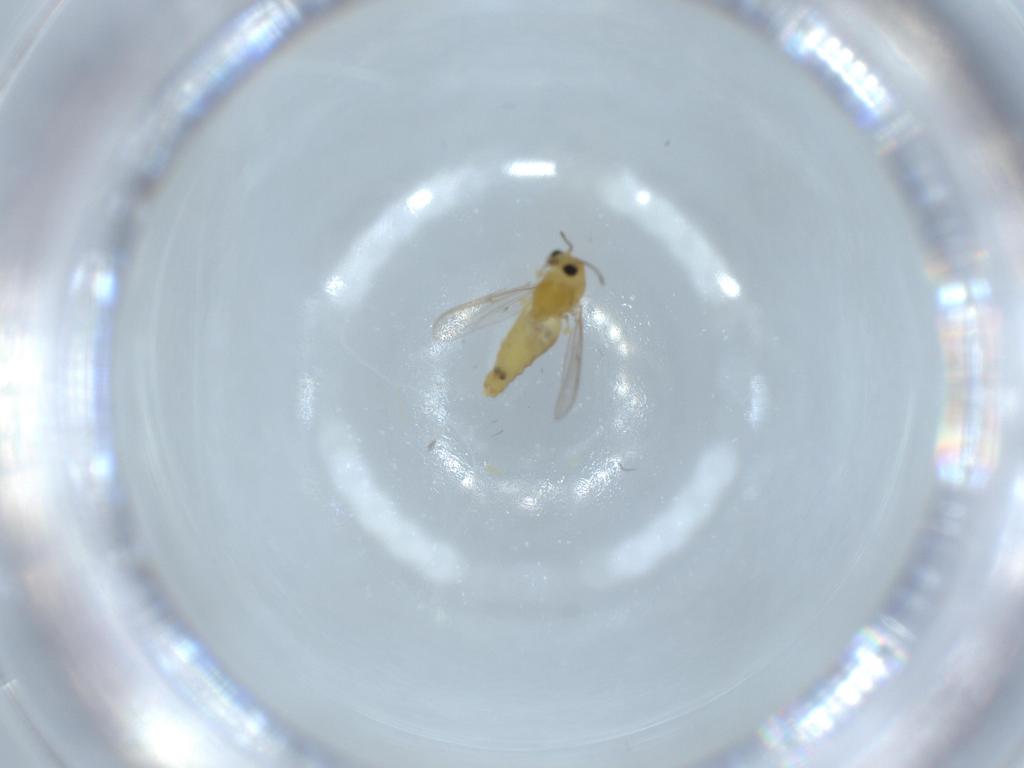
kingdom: Animalia
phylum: Arthropoda
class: Insecta
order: Diptera
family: Chironomidae
